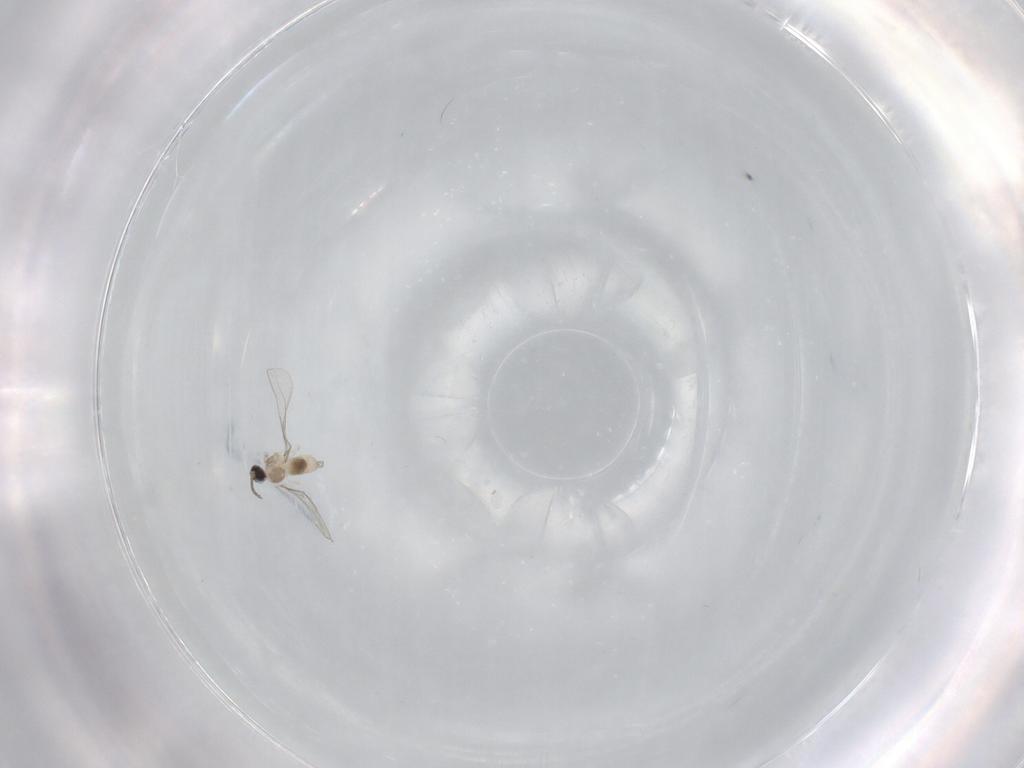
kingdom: Animalia
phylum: Arthropoda
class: Insecta
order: Diptera
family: Cecidomyiidae
